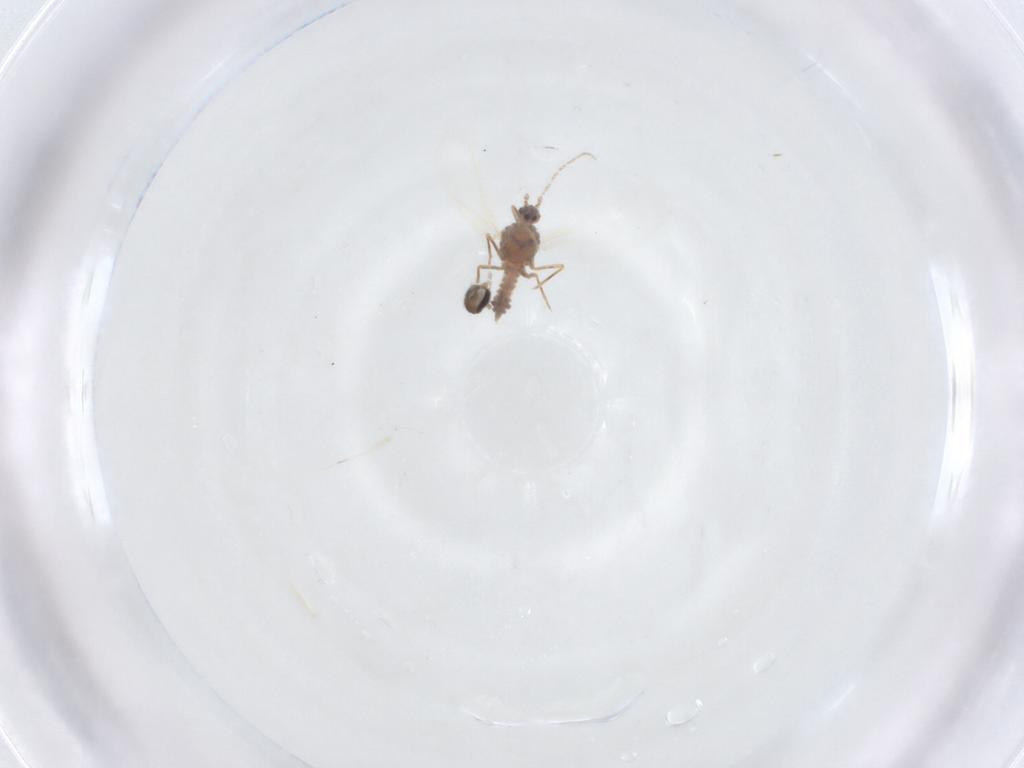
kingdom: Animalia
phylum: Arthropoda
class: Insecta
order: Diptera
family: Cecidomyiidae
